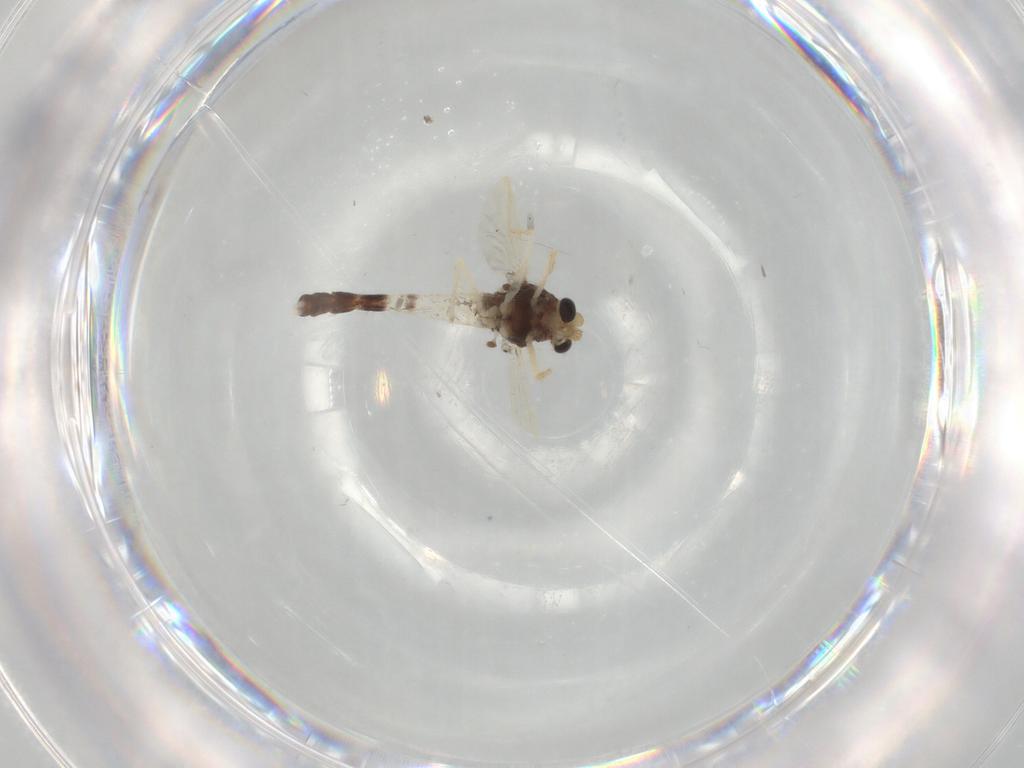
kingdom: Animalia
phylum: Arthropoda
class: Insecta
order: Diptera
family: Chironomidae
